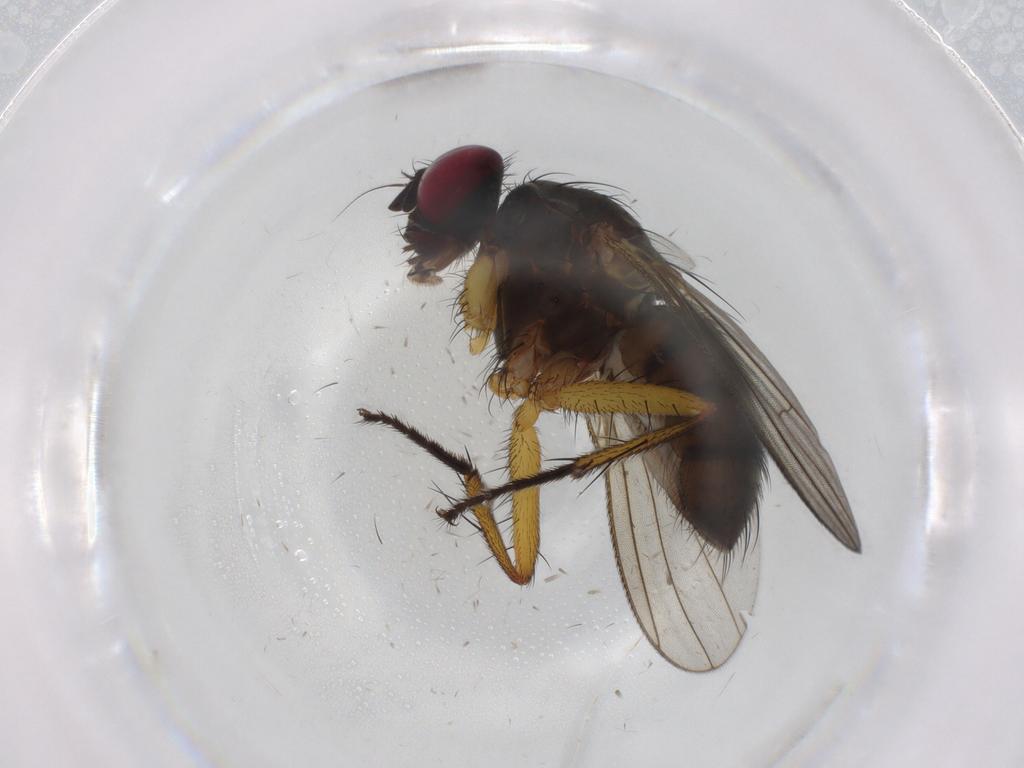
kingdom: Animalia
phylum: Arthropoda
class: Insecta
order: Diptera
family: Muscidae
